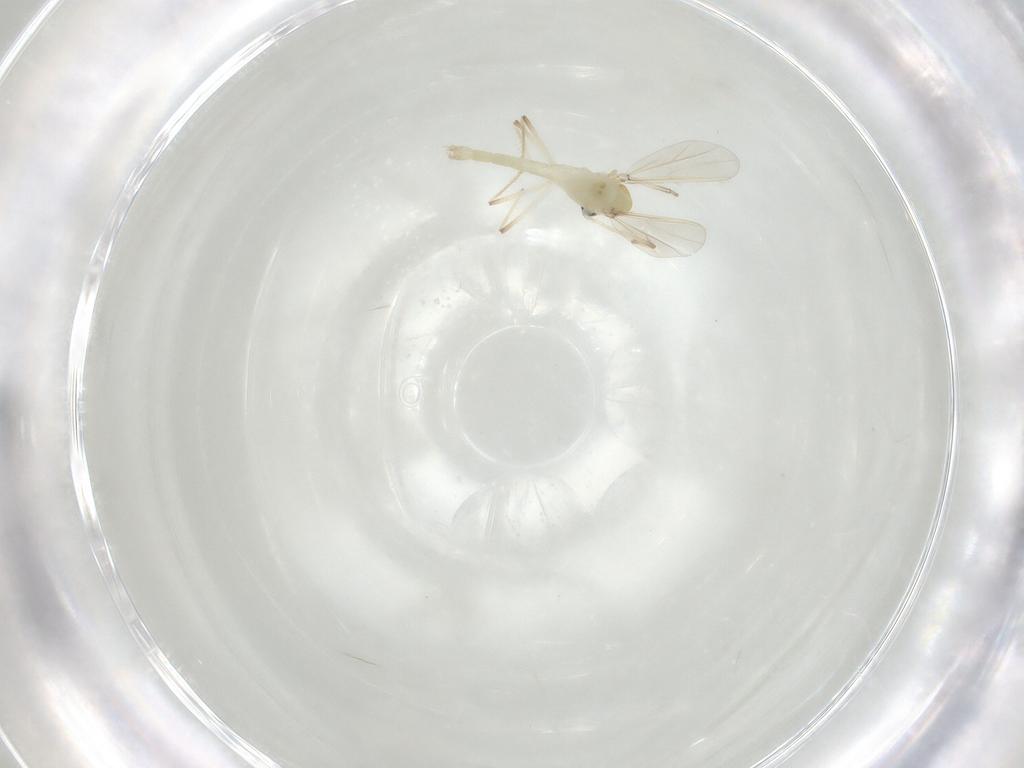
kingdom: Animalia
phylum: Arthropoda
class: Insecta
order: Diptera
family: Chironomidae
